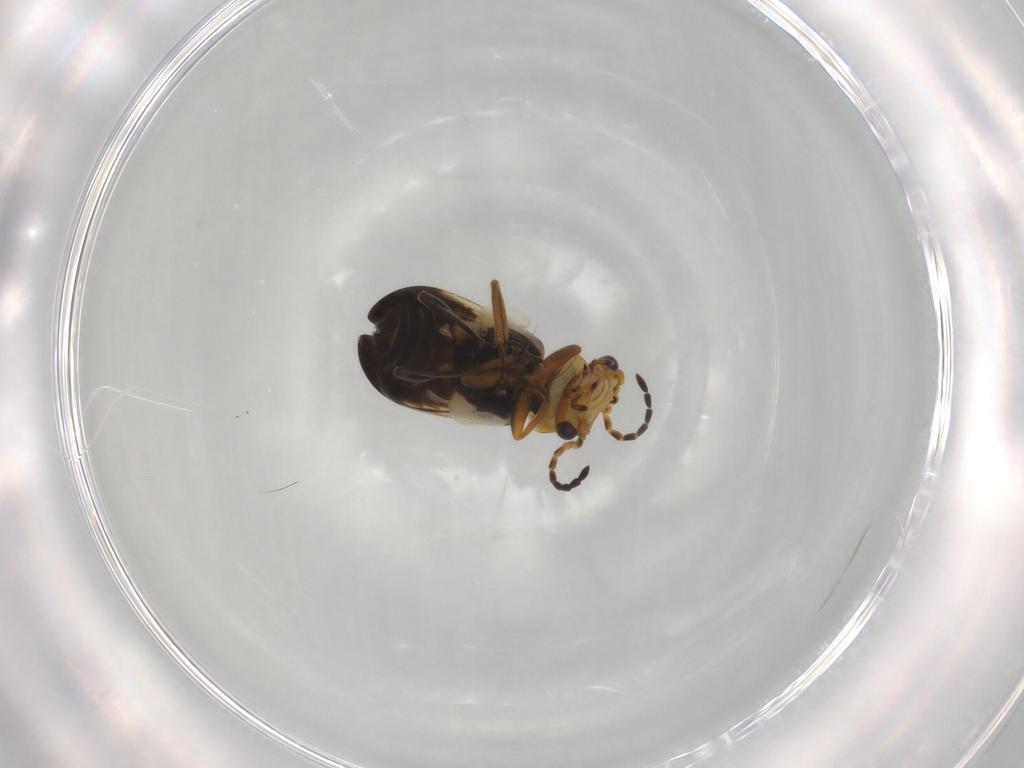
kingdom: Animalia
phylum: Arthropoda
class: Insecta
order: Coleoptera
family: Melyridae
